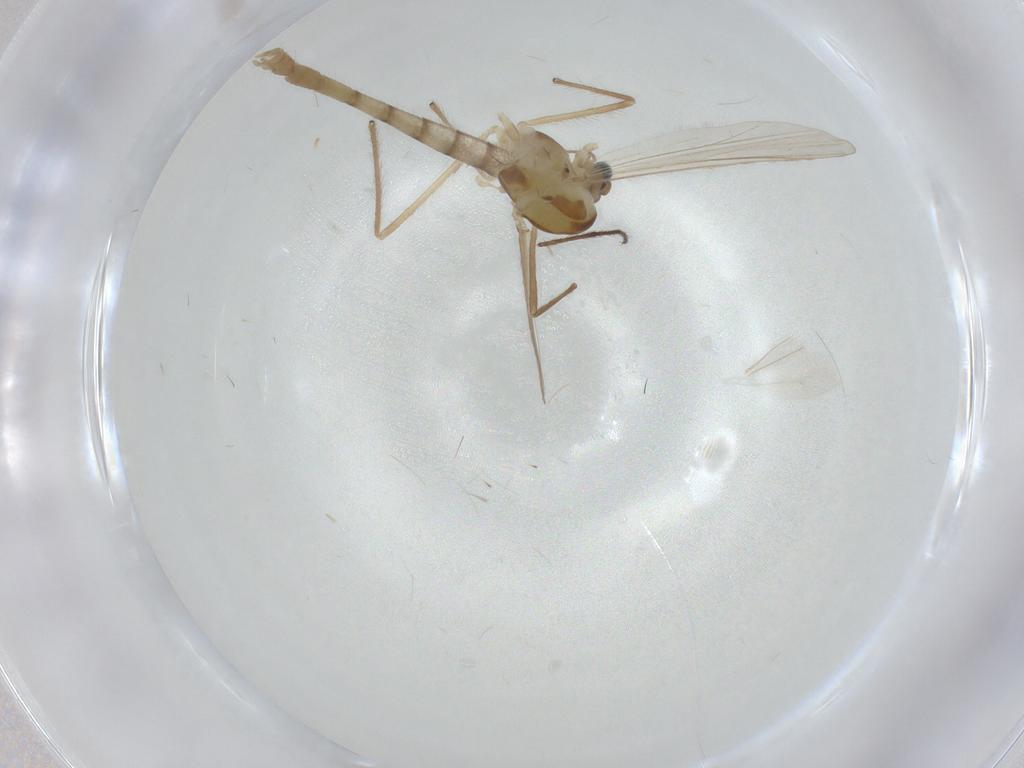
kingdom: Animalia
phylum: Arthropoda
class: Insecta
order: Diptera
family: Chironomidae
